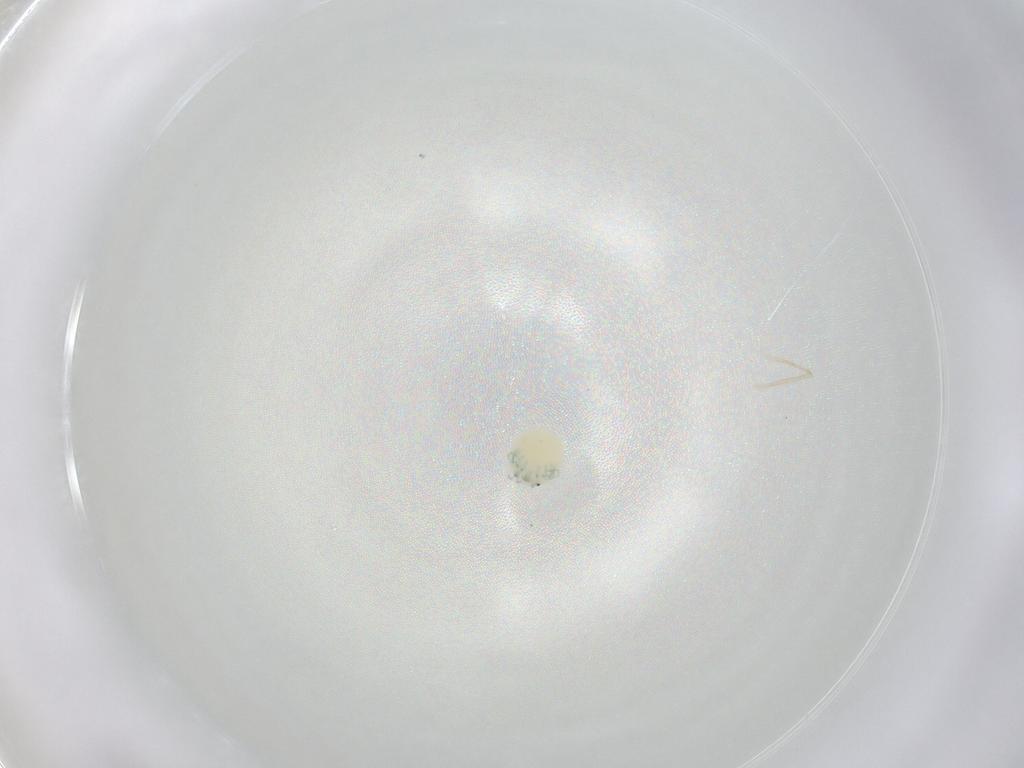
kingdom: Animalia
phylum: Arthropoda
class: Arachnida
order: Trombidiformes
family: Arrenuridae
